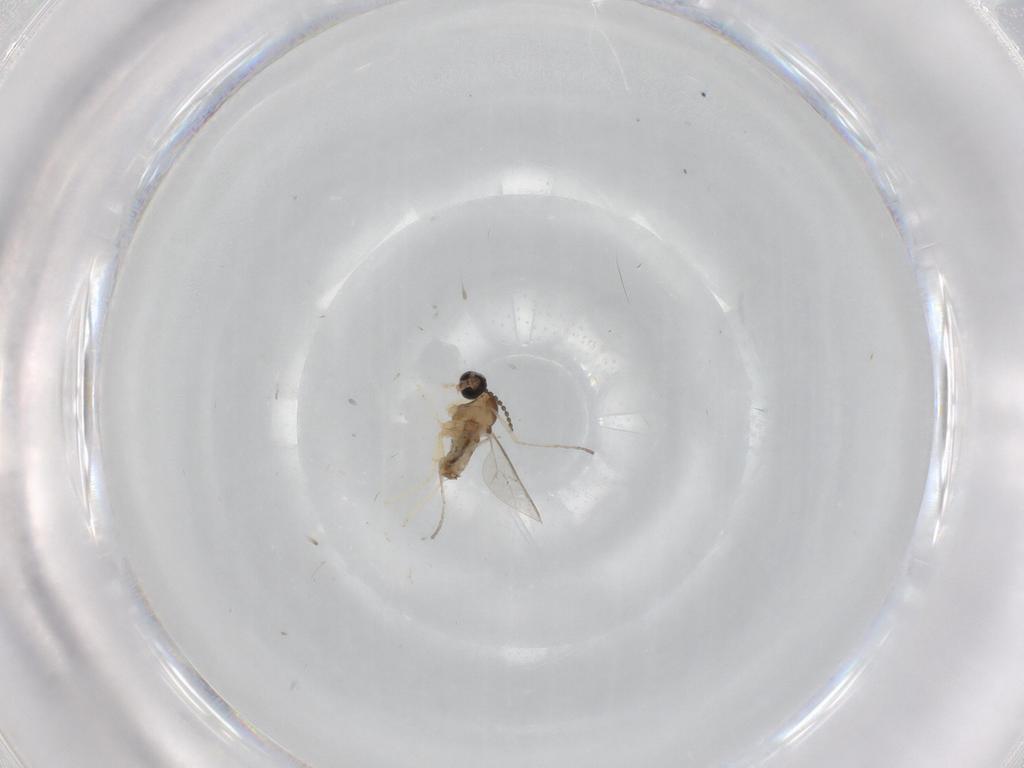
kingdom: Animalia
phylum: Arthropoda
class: Insecta
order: Diptera
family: Cecidomyiidae
